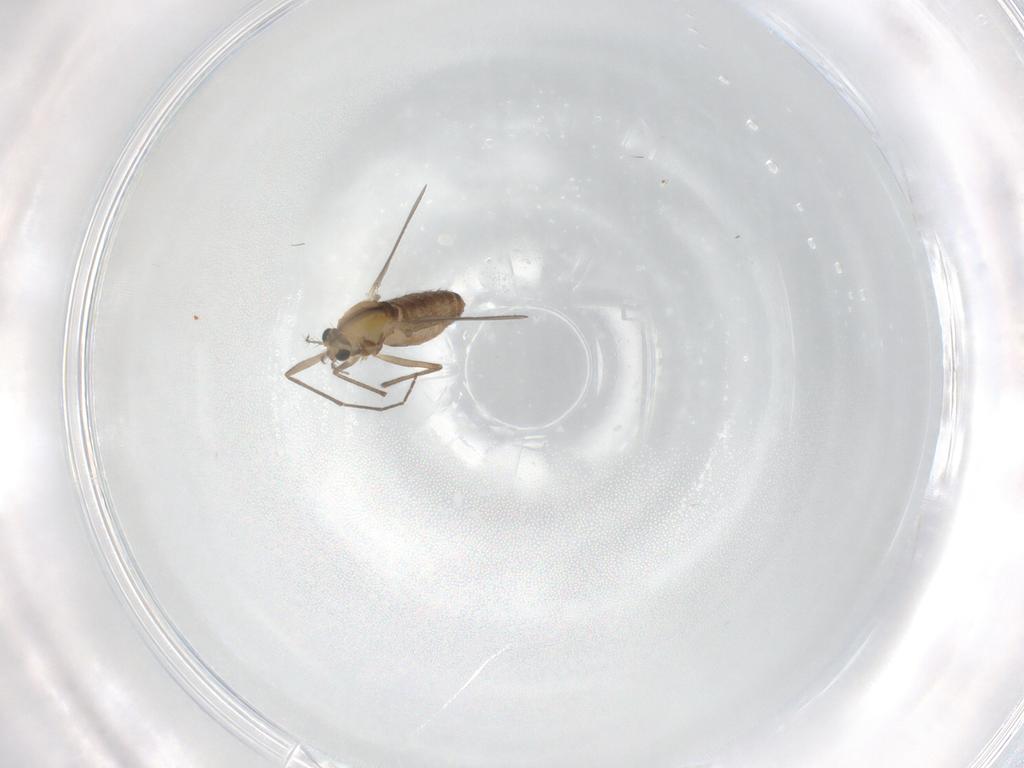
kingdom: Animalia
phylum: Arthropoda
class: Insecta
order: Diptera
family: Chironomidae
